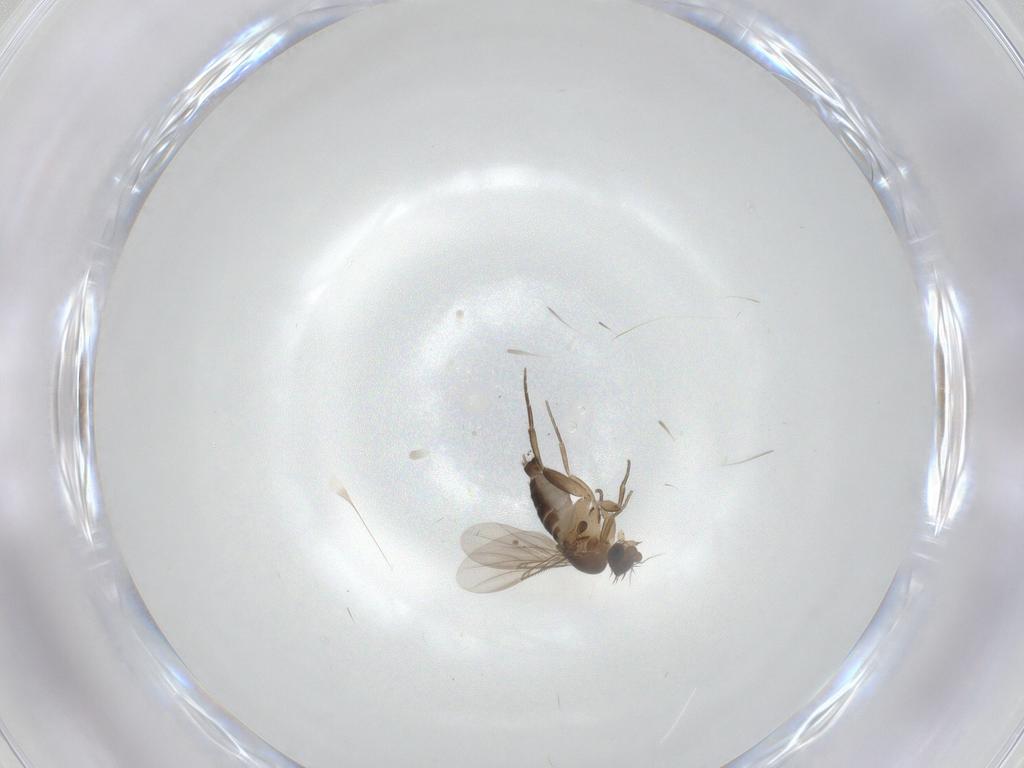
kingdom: Animalia
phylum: Arthropoda
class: Insecta
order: Diptera
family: Phoridae
